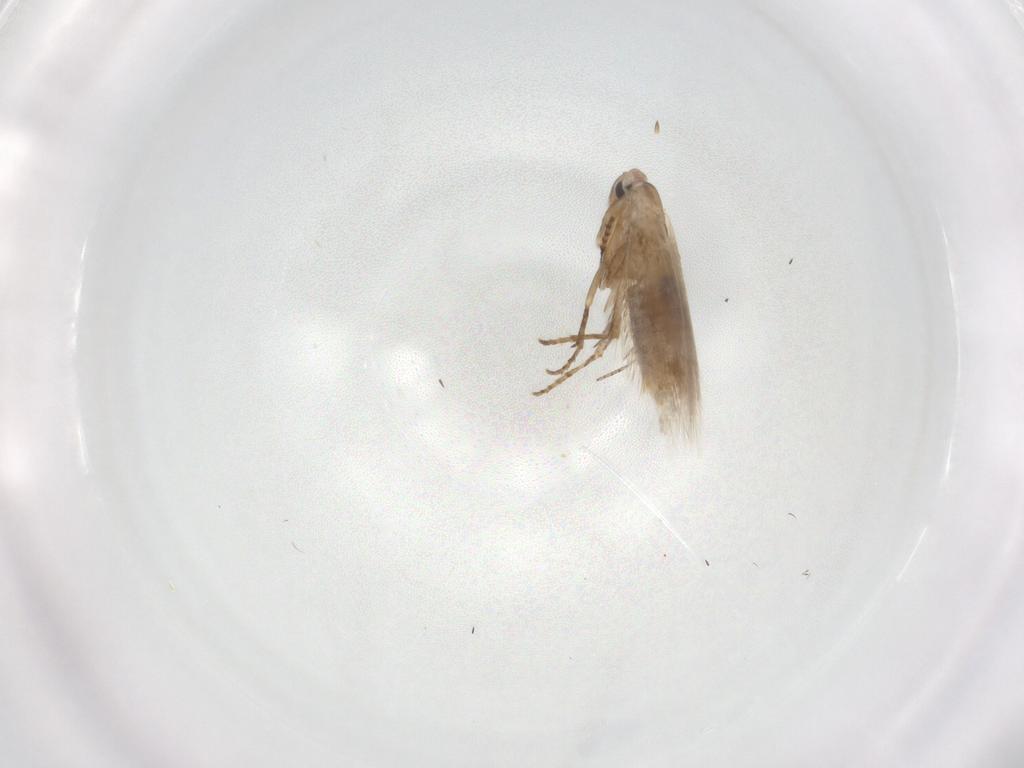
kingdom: Animalia
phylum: Arthropoda
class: Insecta
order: Lepidoptera
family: Bucculatricidae
